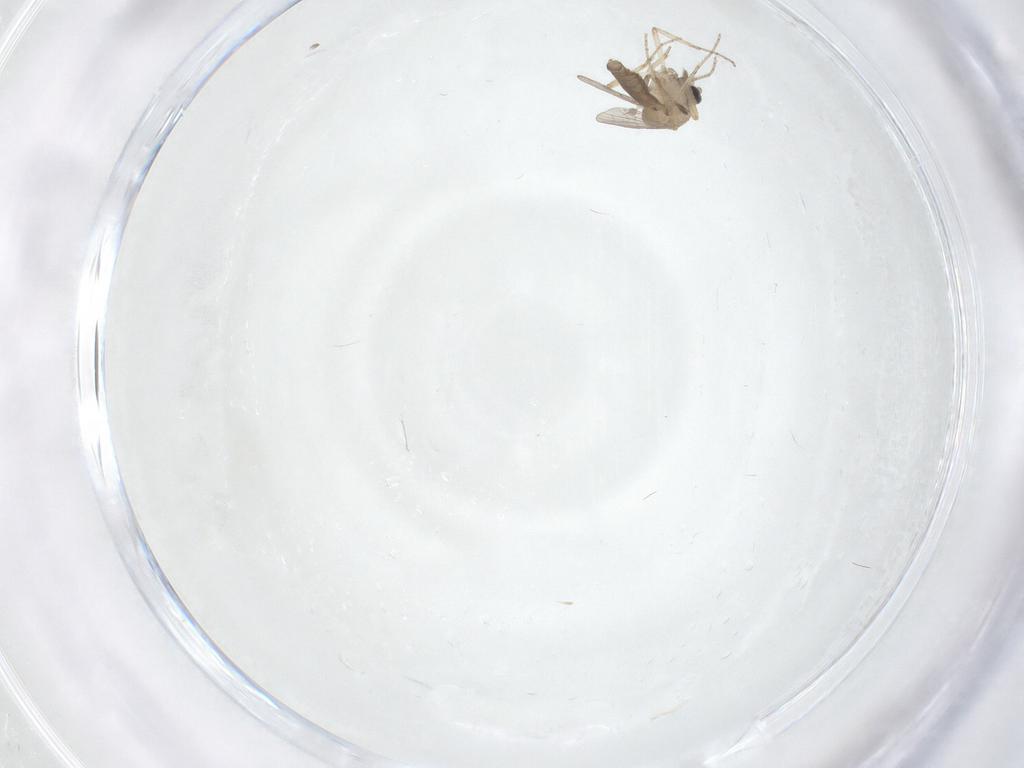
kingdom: Animalia
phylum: Arthropoda
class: Insecta
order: Diptera
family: Ceratopogonidae
